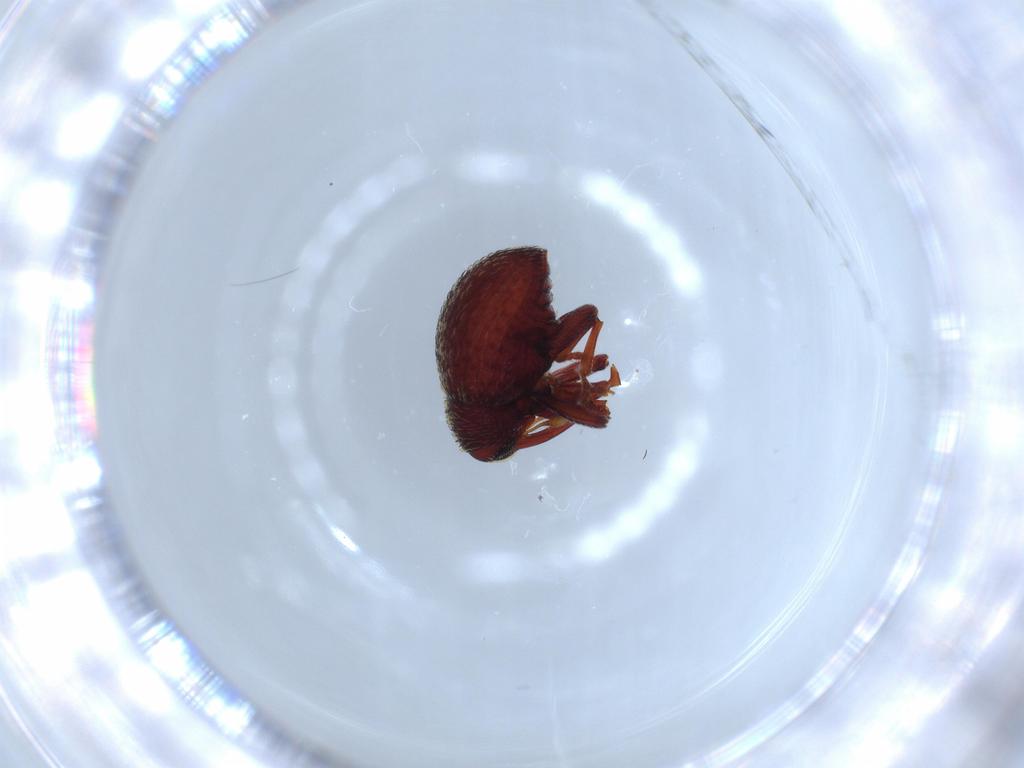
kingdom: Animalia
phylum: Arthropoda
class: Insecta
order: Coleoptera
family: Curculionidae
